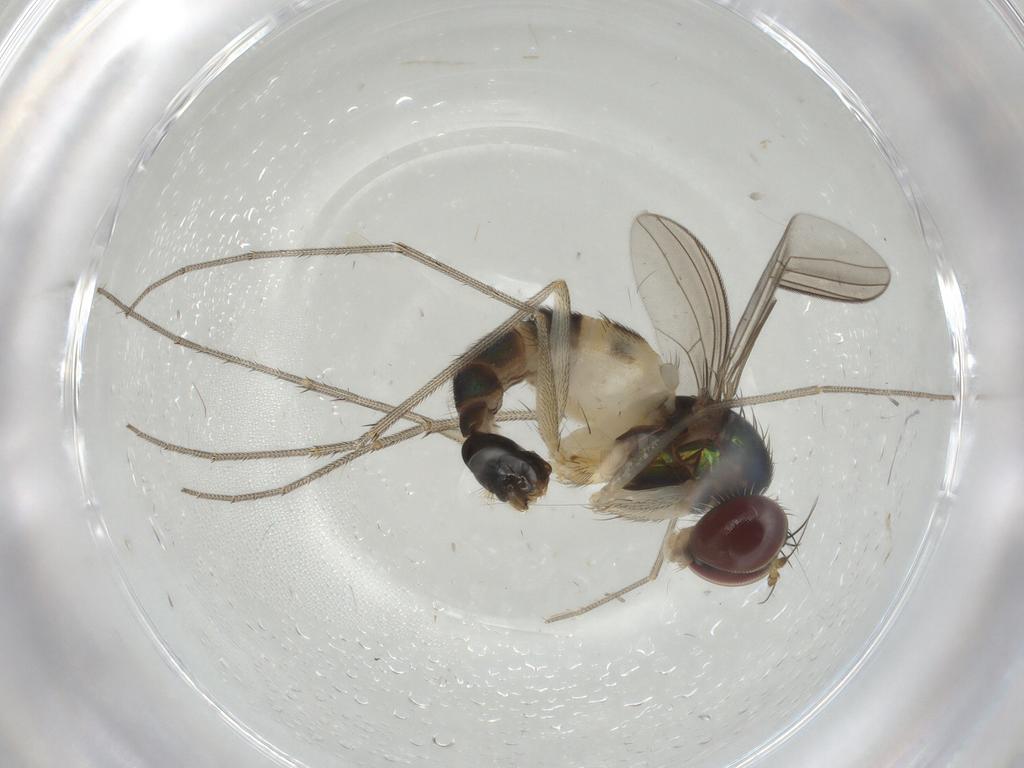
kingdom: Animalia
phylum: Arthropoda
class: Insecta
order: Diptera
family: Dolichopodidae
